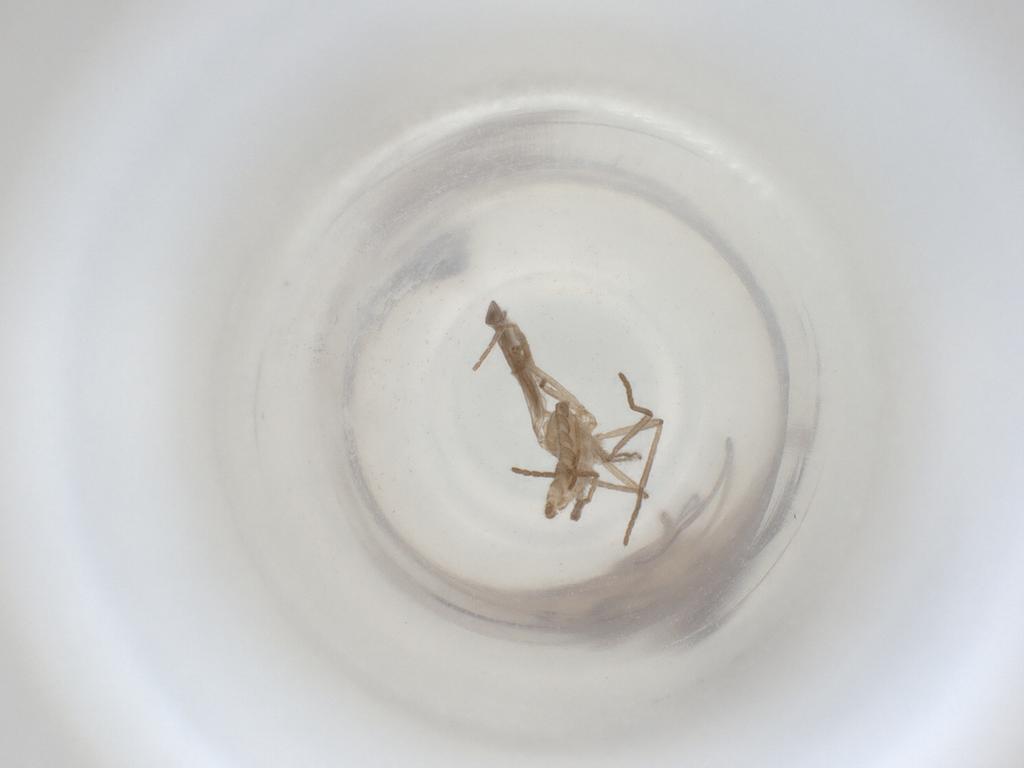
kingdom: Animalia
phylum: Arthropoda
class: Insecta
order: Diptera
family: Cecidomyiidae
